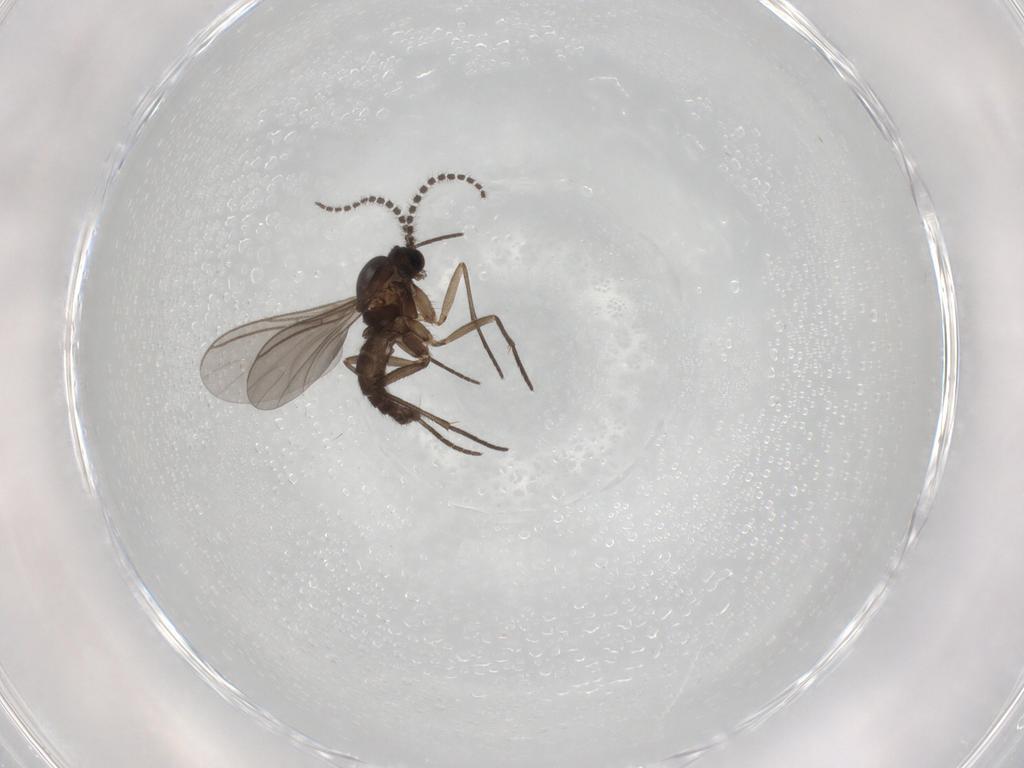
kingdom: Animalia
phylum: Arthropoda
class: Insecta
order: Diptera
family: Sciaridae
